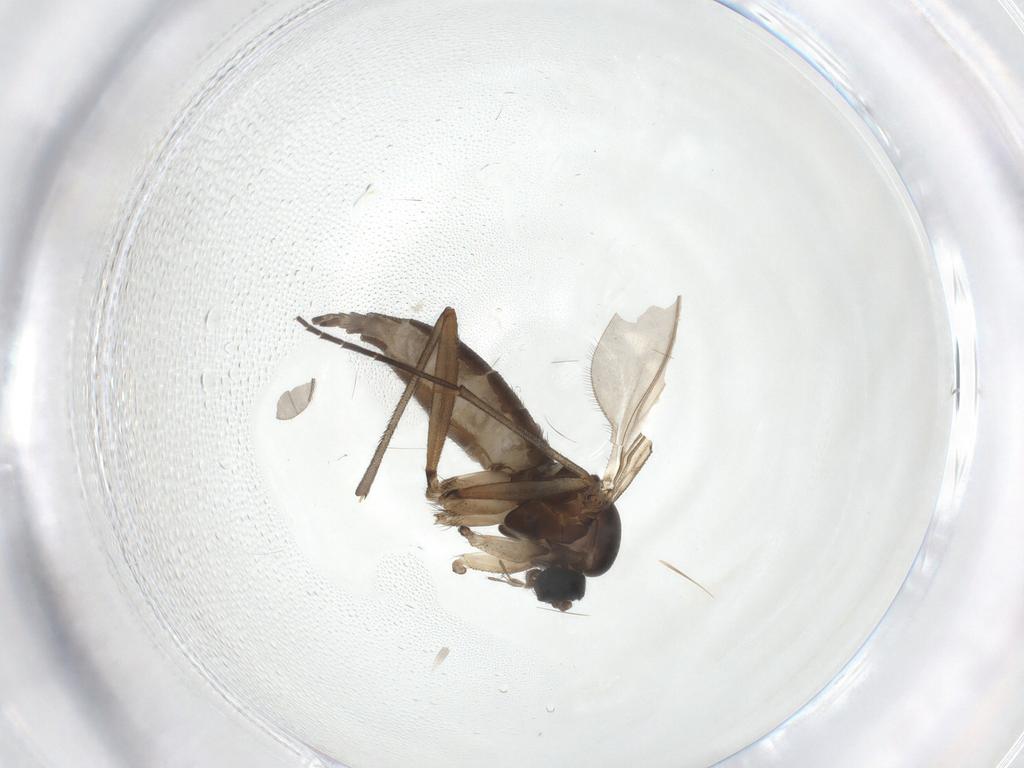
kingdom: Animalia
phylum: Arthropoda
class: Insecta
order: Diptera
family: Sciaridae
